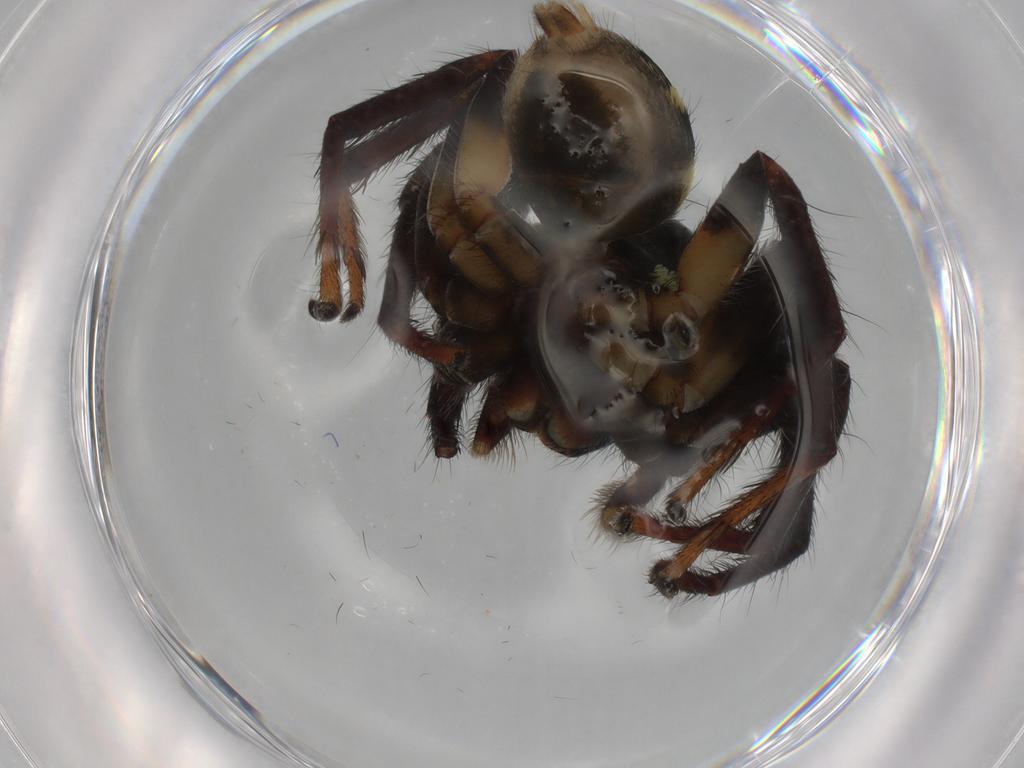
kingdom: Animalia
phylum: Arthropoda
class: Arachnida
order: Araneae
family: Salticidae
